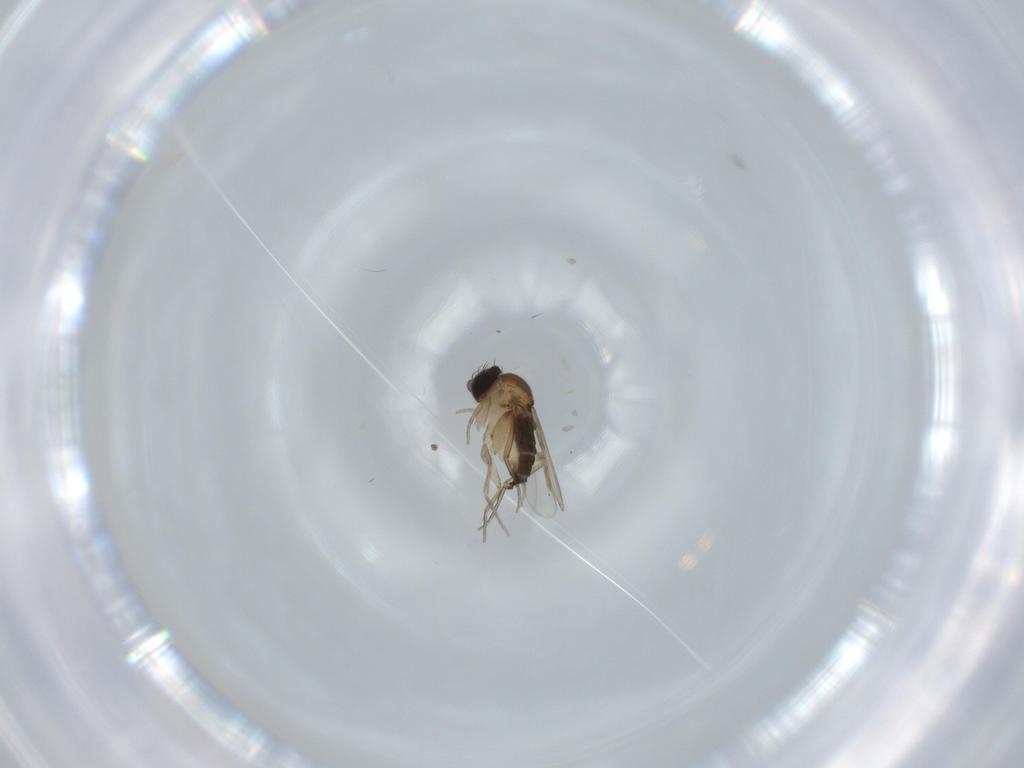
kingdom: Animalia
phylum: Arthropoda
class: Insecta
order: Diptera
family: Phoridae
